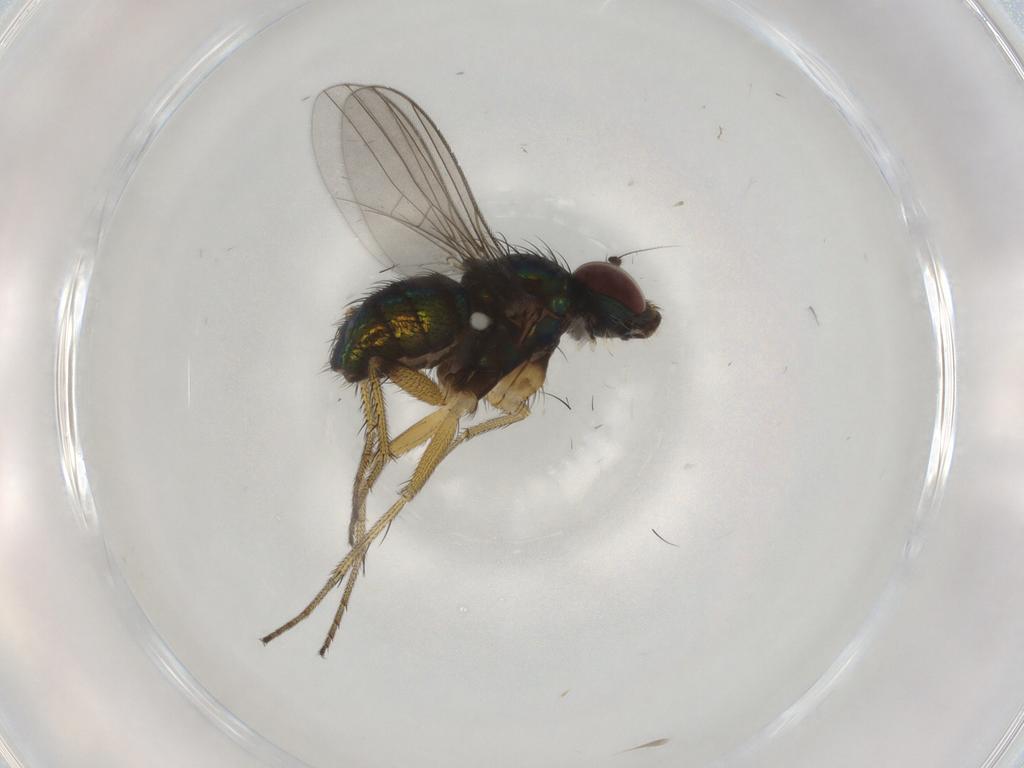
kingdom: Animalia
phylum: Arthropoda
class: Insecta
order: Diptera
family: Dolichopodidae
